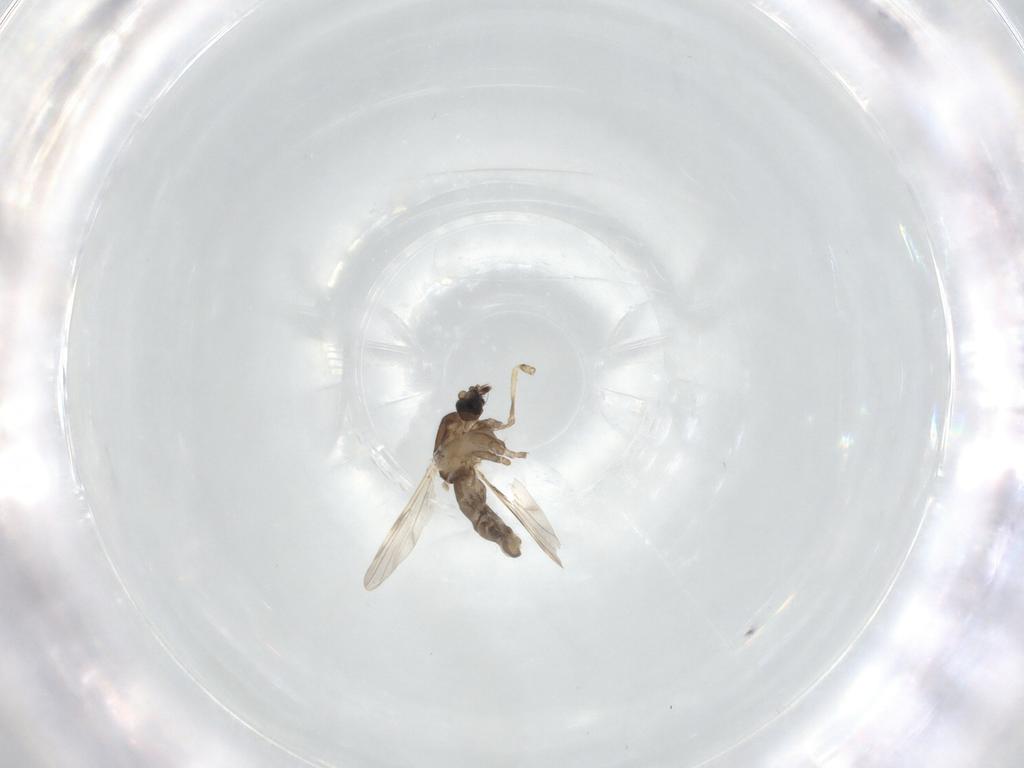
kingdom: Animalia
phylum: Arthropoda
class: Insecta
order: Diptera
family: Ceratopogonidae
